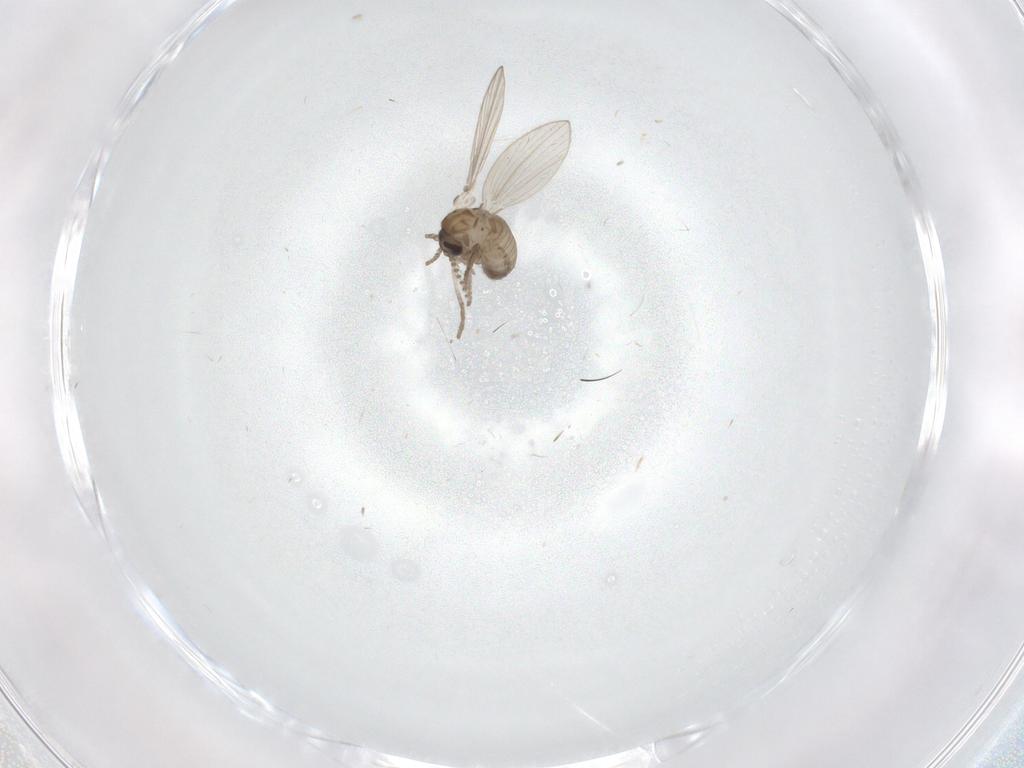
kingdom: Animalia
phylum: Arthropoda
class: Insecta
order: Diptera
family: Psychodidae
